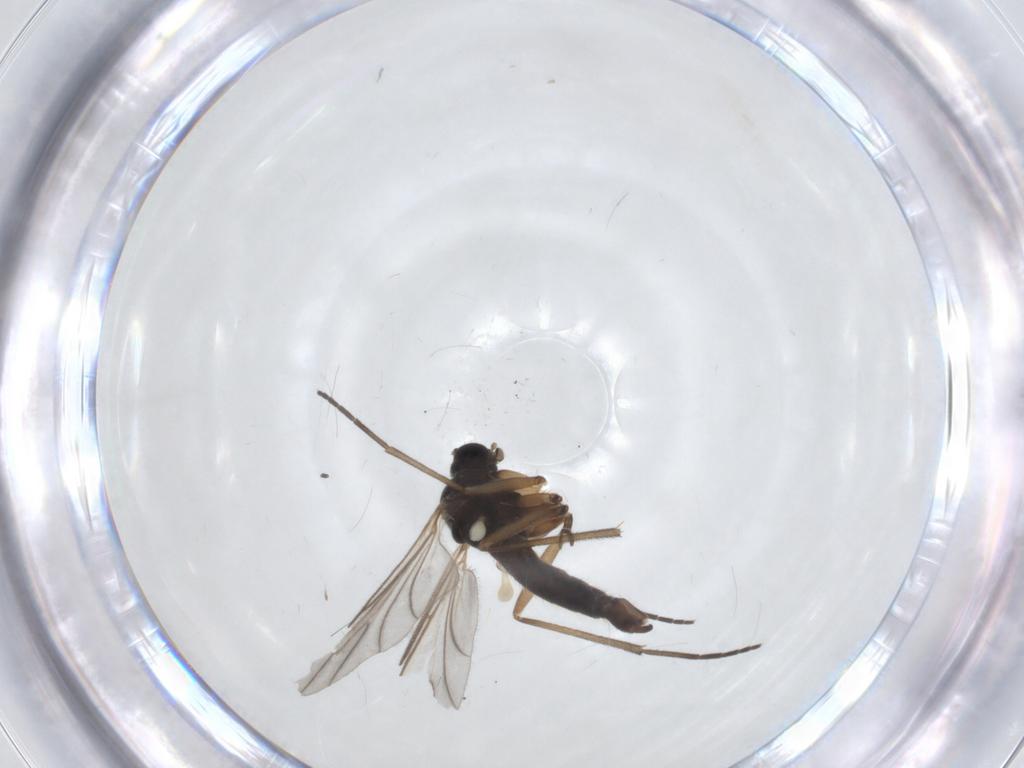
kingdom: Animalia
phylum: Arthropoda
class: Insecta
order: Diptera
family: Sciaridae
